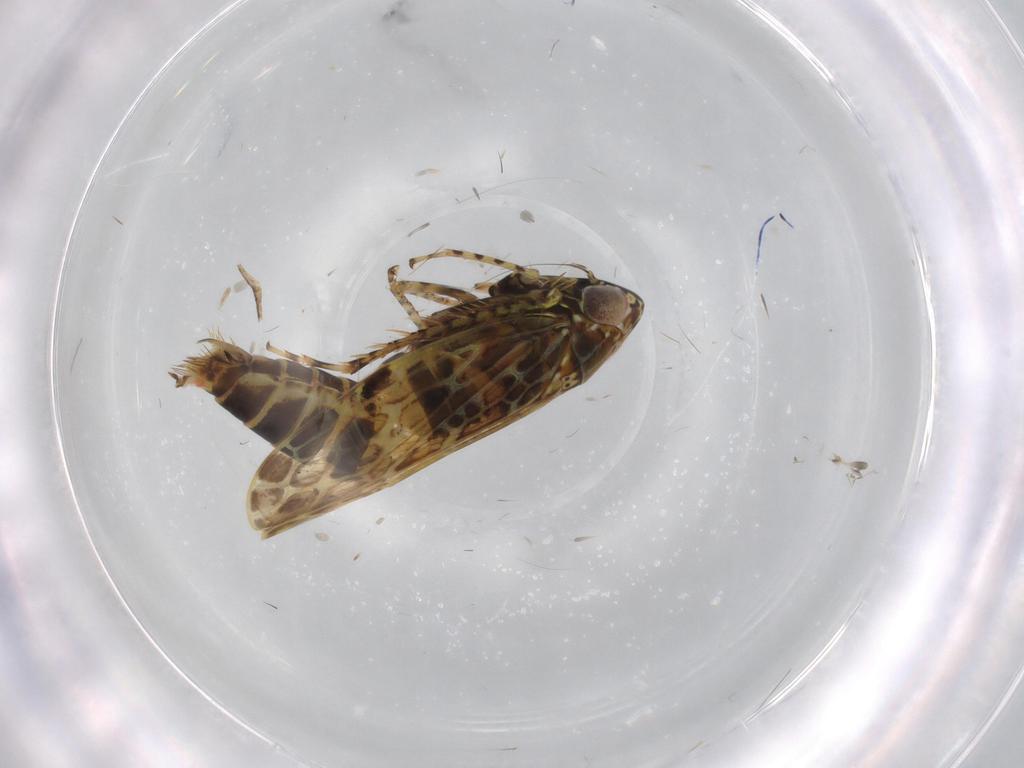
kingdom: Animalia
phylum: Arthropoda
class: Insecta
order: Hemiptera
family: Cicadellidae
